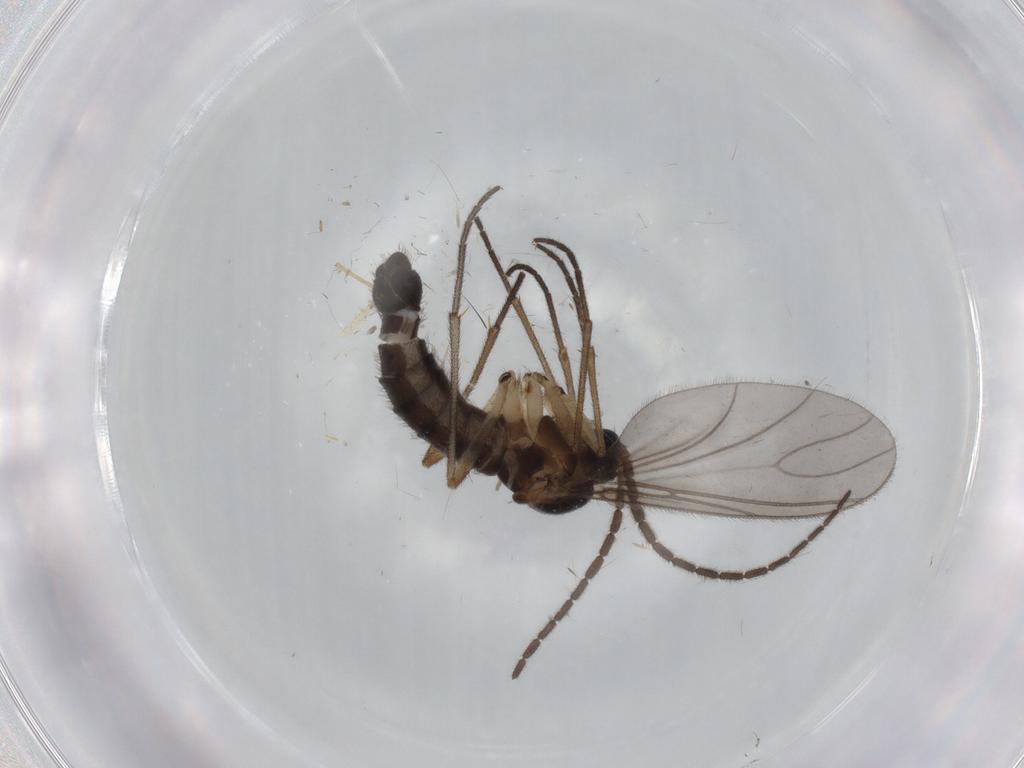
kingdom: Animalia
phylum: Arthropoda
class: Insecta
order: Diptera
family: Sciaridae
